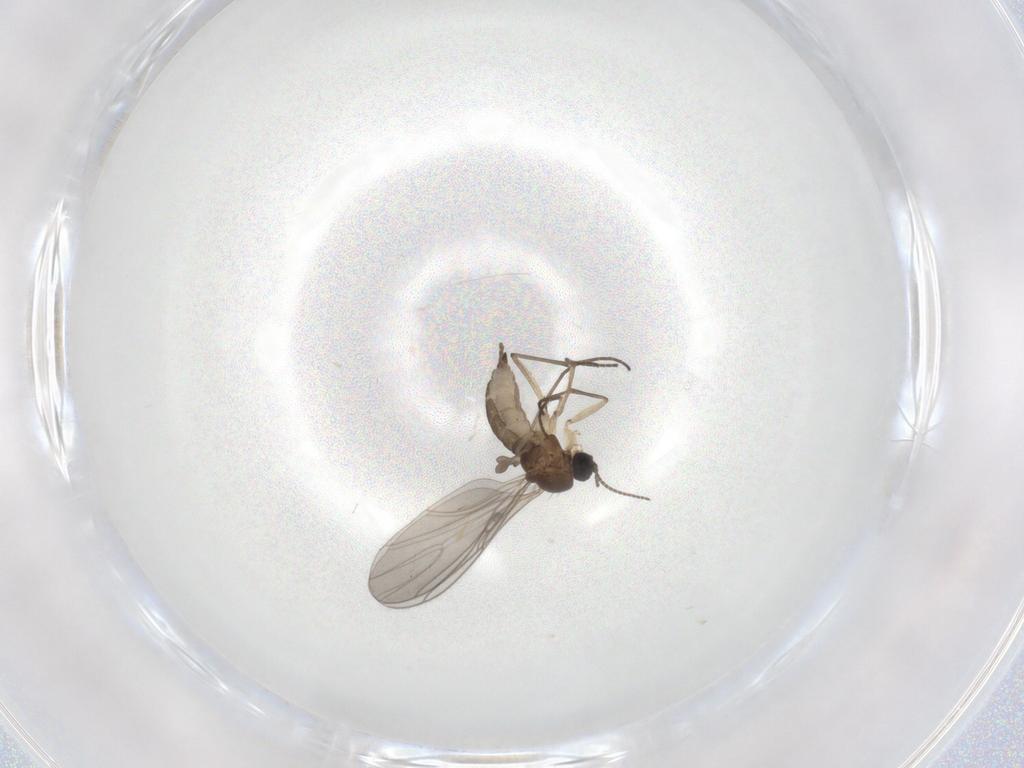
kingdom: Animalia
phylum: Arthropoda
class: Insecta
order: Diptera
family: Sciaridae
